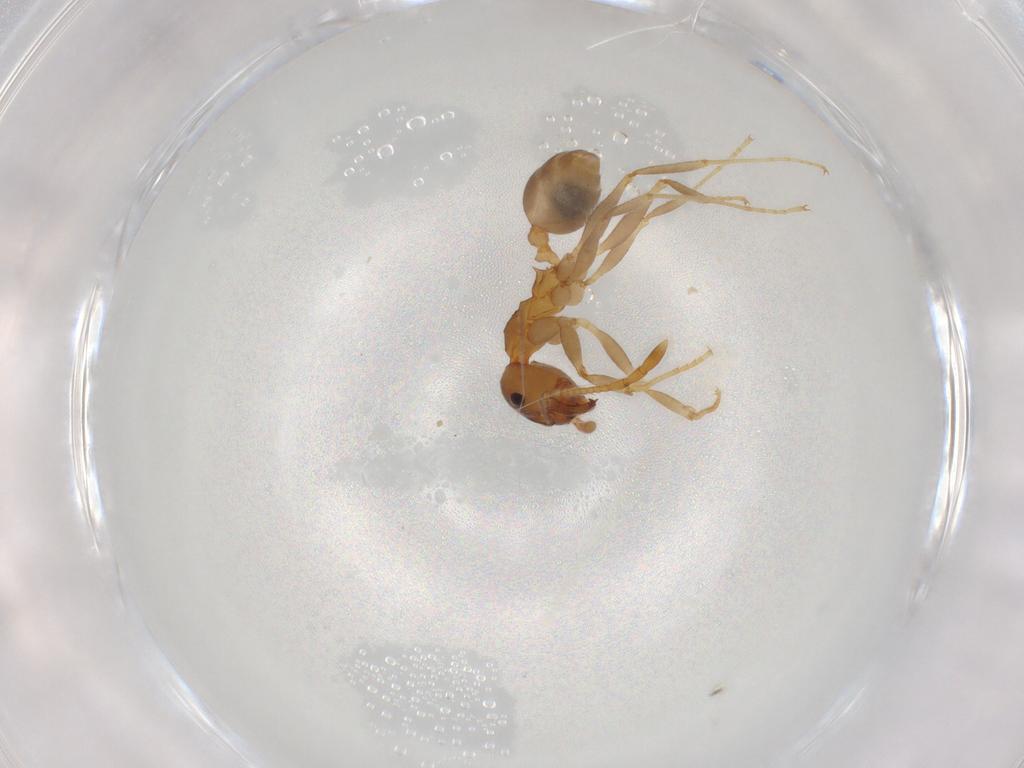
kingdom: Animalia
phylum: Arthropoda
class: Insecta
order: Hymenoptera
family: Formicidae
